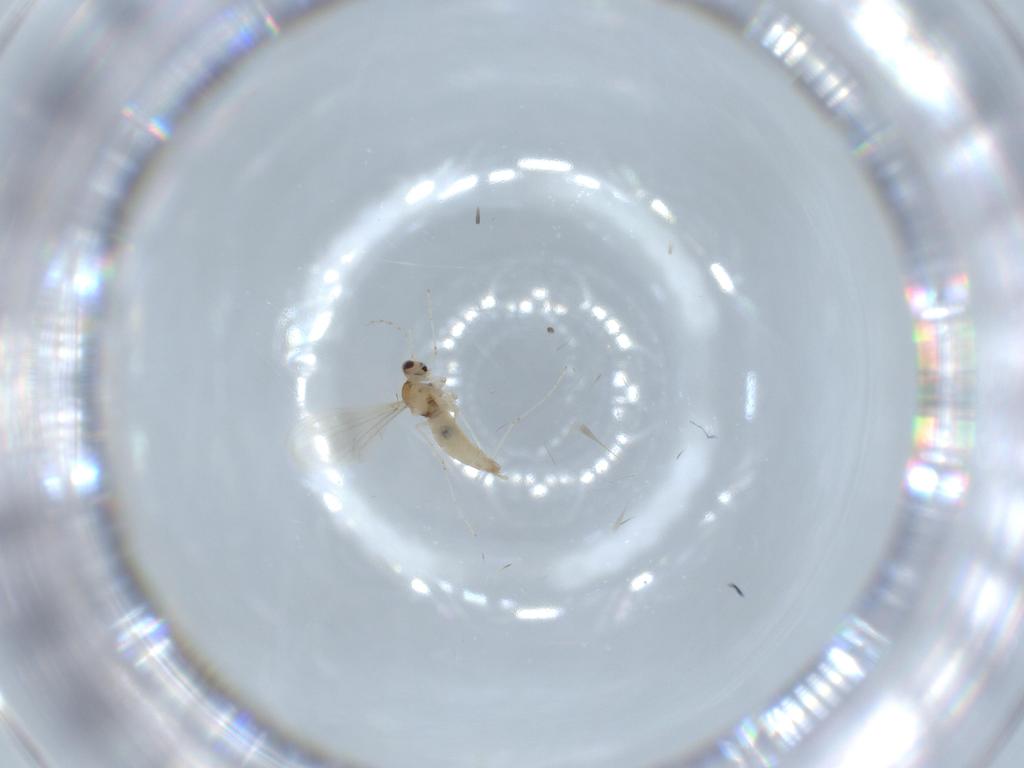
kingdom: Animalia
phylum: Arthropoda
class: Insecta
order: Diptera
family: Cecidomyiidae
